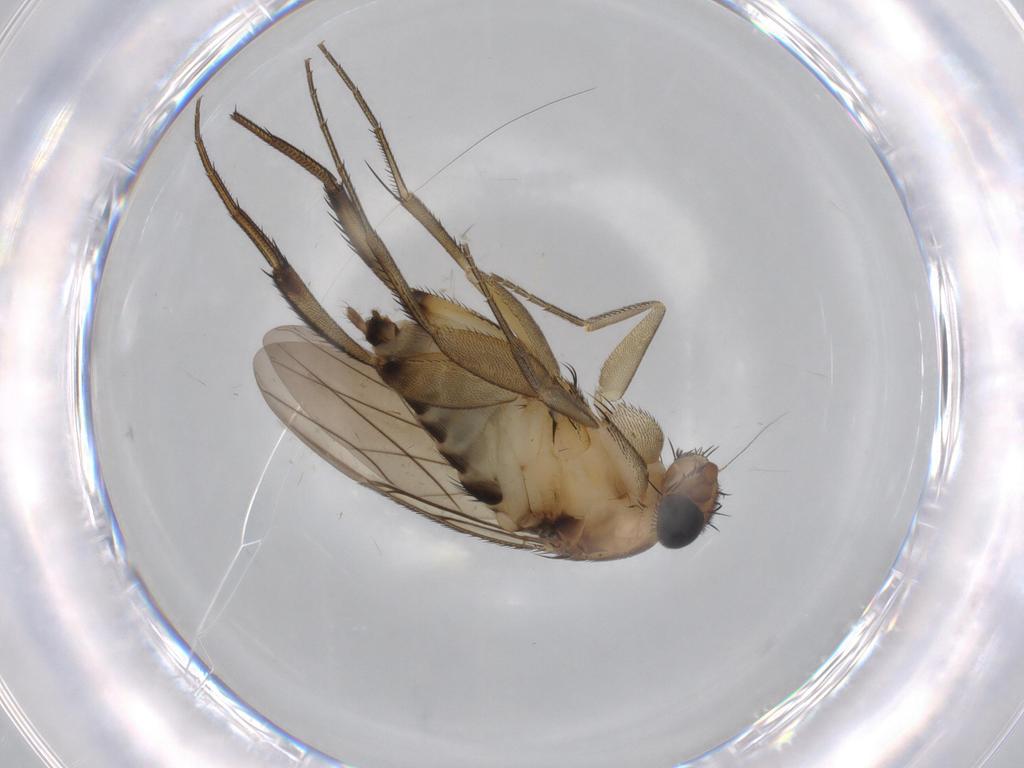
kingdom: Animalia
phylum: Arthropoda
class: Insecta
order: Diptera
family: Phoridae
